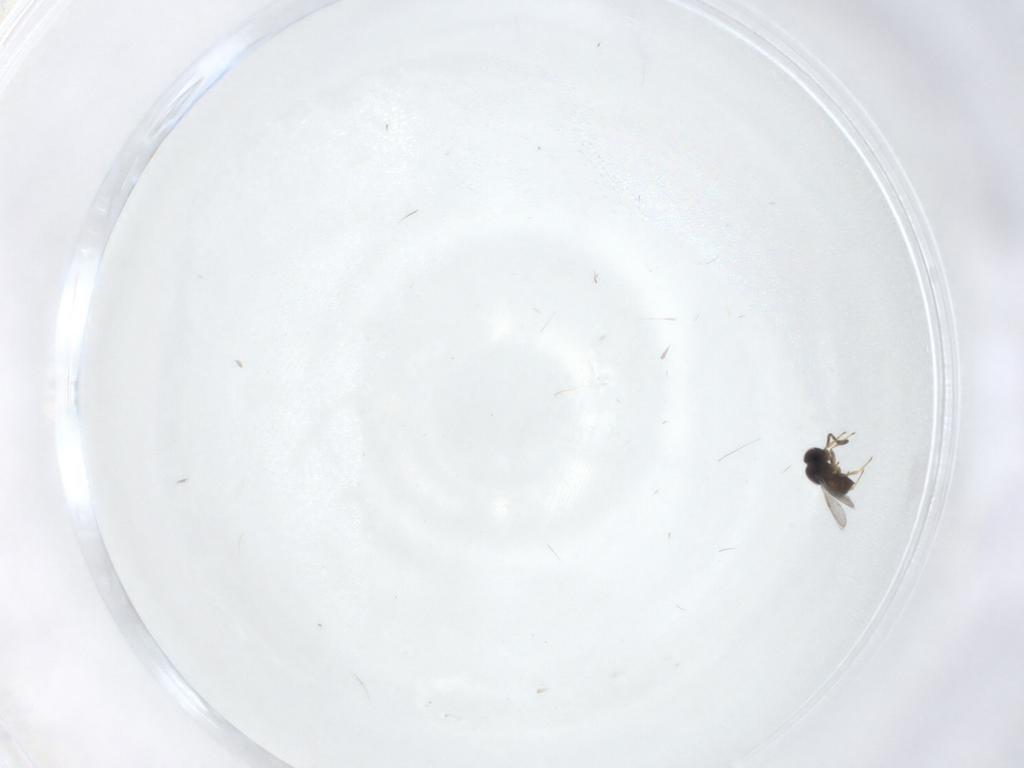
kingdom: Animalia
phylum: Arthropoda
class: Insecta
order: Hymenoptera
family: Scelionidae
